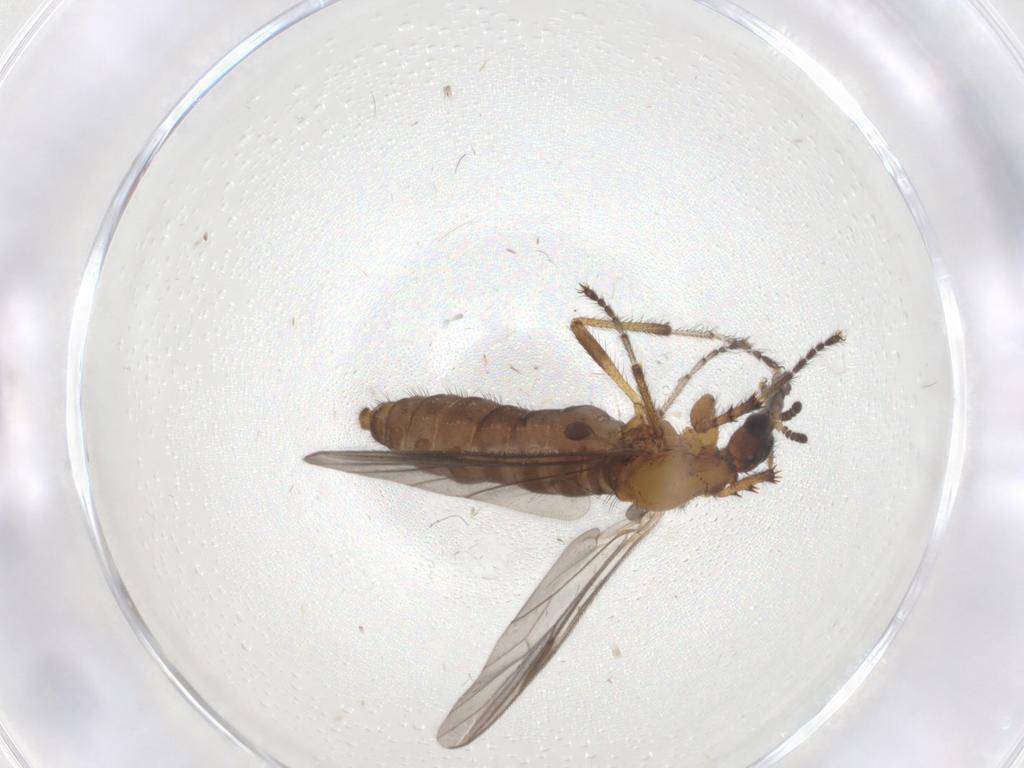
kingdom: Animalia
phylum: Arthropoda
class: Insecta
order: Diptera
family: Bibionidae
